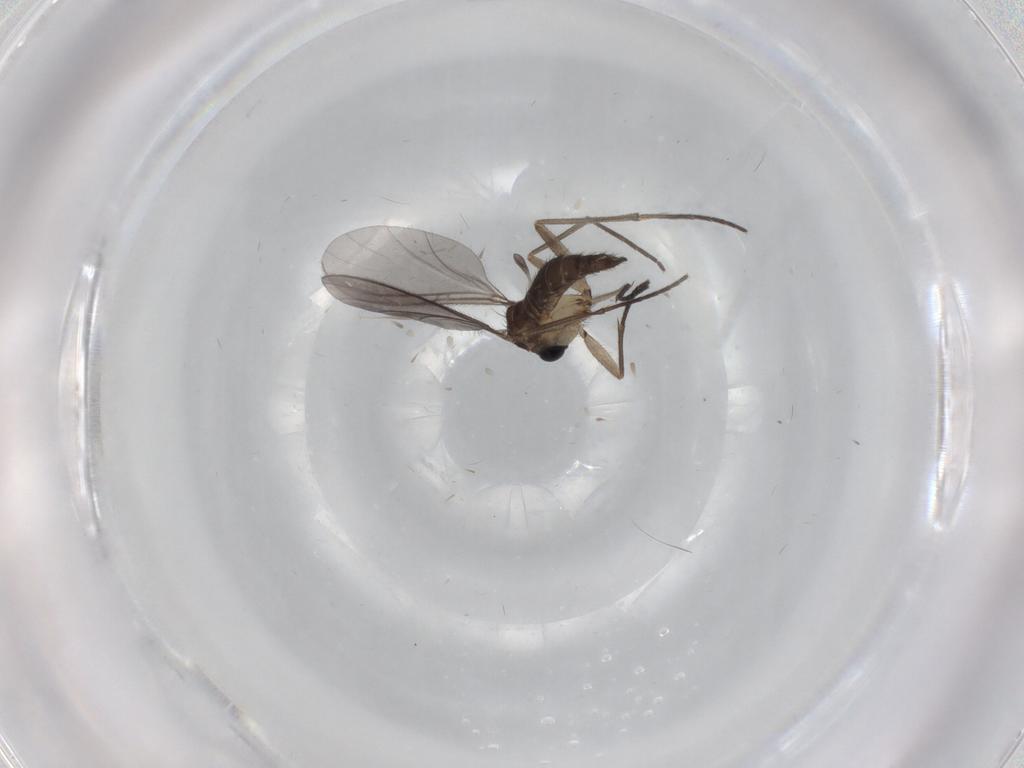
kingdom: Animalia
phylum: Arthropoda
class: Insecta
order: Diptera
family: Sciaridae
